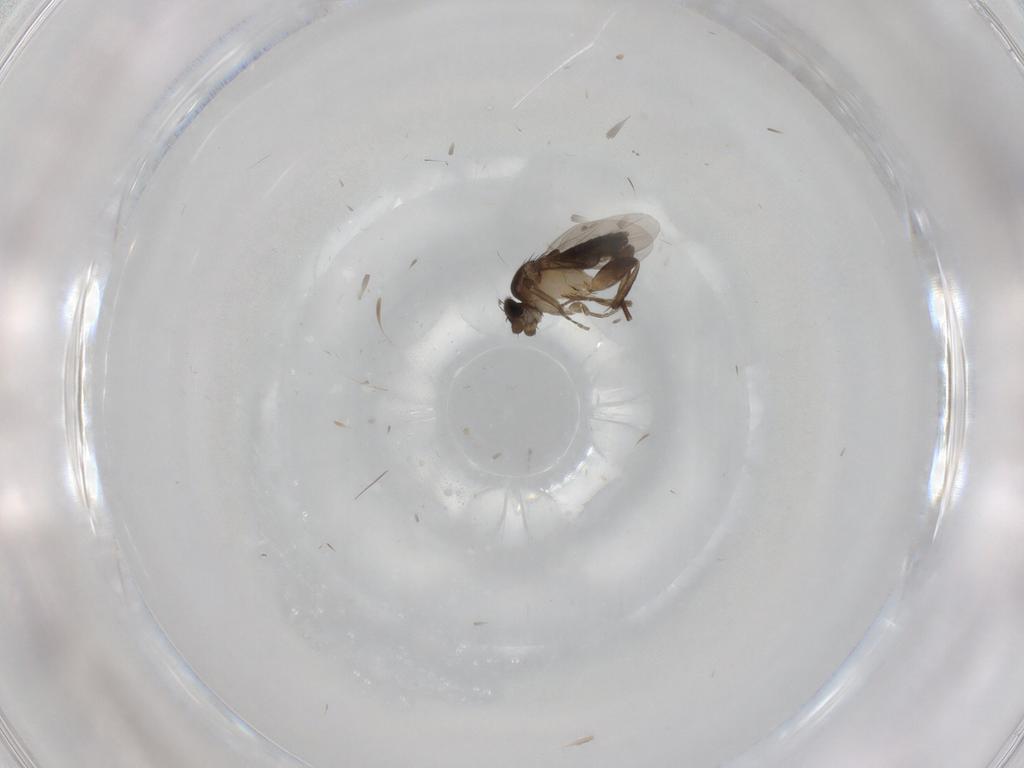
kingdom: Animalia
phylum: Arthropoda
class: Insecta
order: Diptera
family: Phoridae
